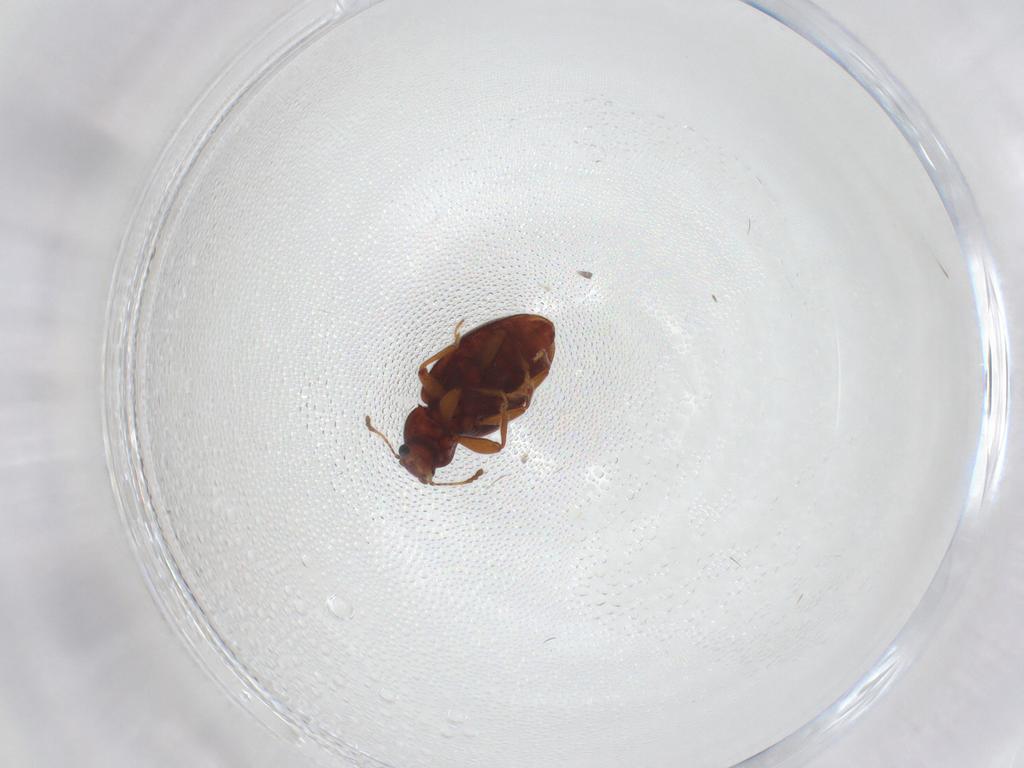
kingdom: Animalia
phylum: Arthropoda
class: Insecta
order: Coleoptera
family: Latridiidae
